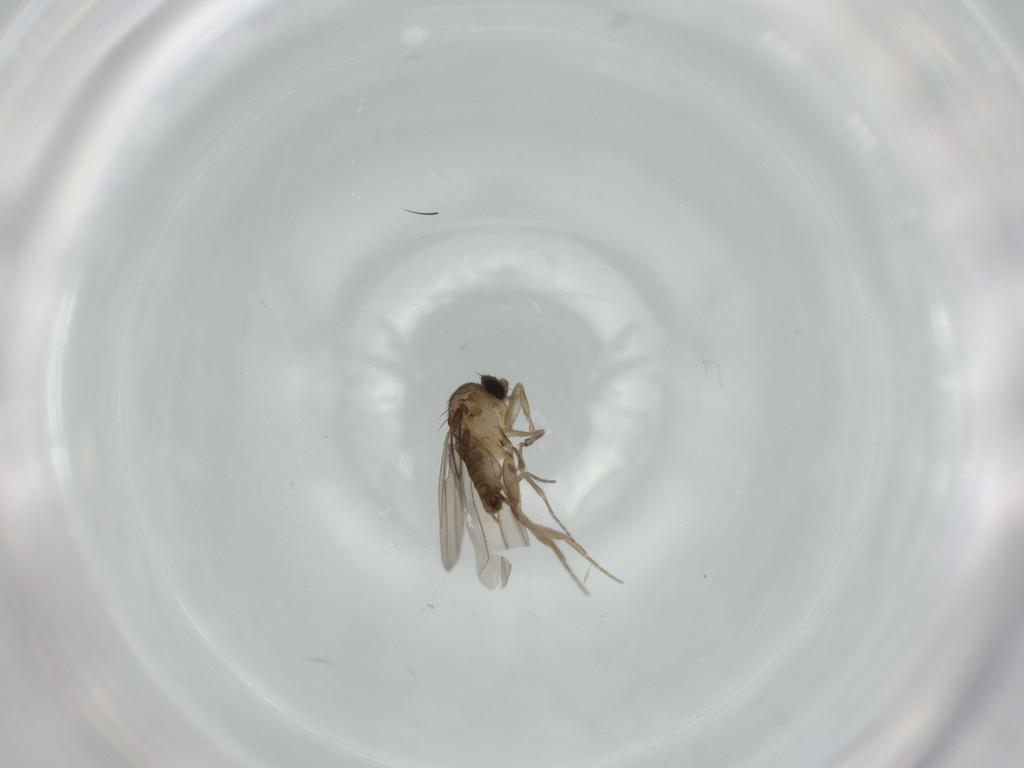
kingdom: Animalia
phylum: Arthropoda
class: Insecta
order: Diptera
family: Phoridae
